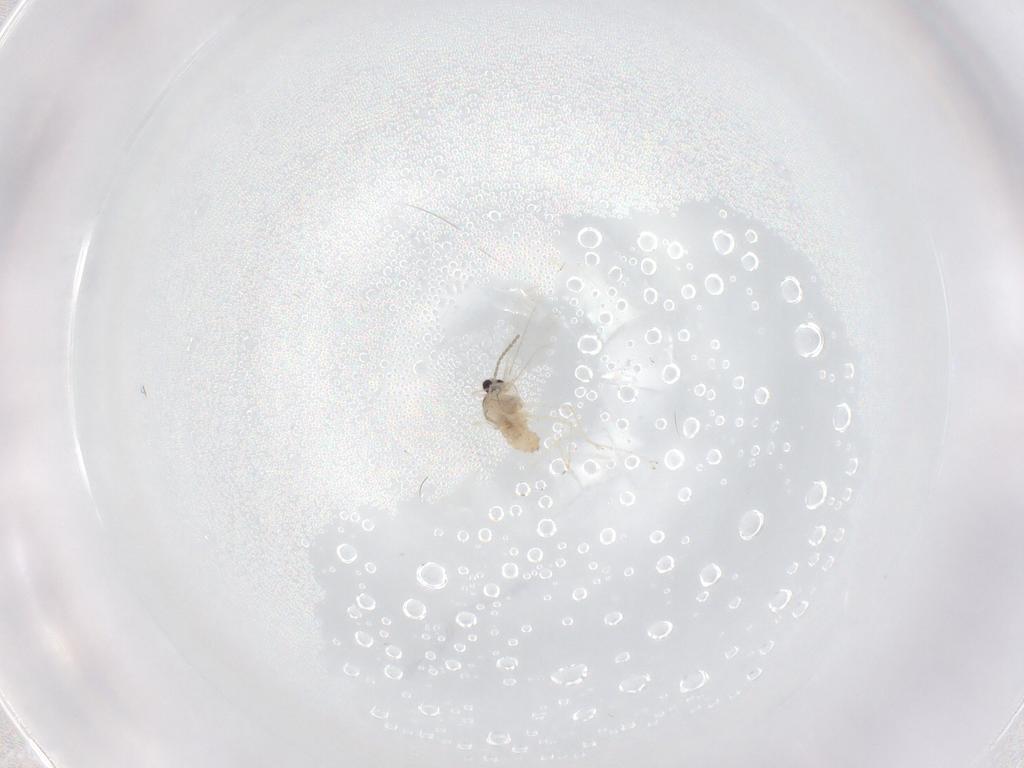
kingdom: Animalia
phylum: Arthropoda
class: Insecta
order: Diptera
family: Cecidomyiidae
